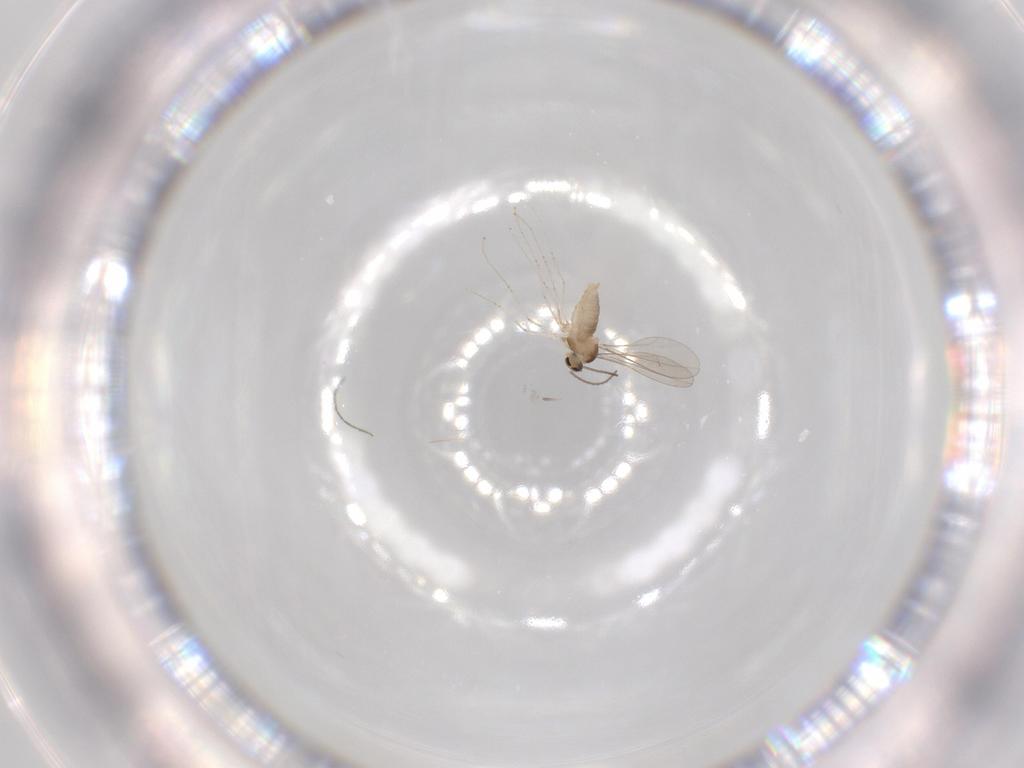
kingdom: Animalia
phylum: Arthropoda
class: Insecta
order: Diptera
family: Cecidomyiidae
